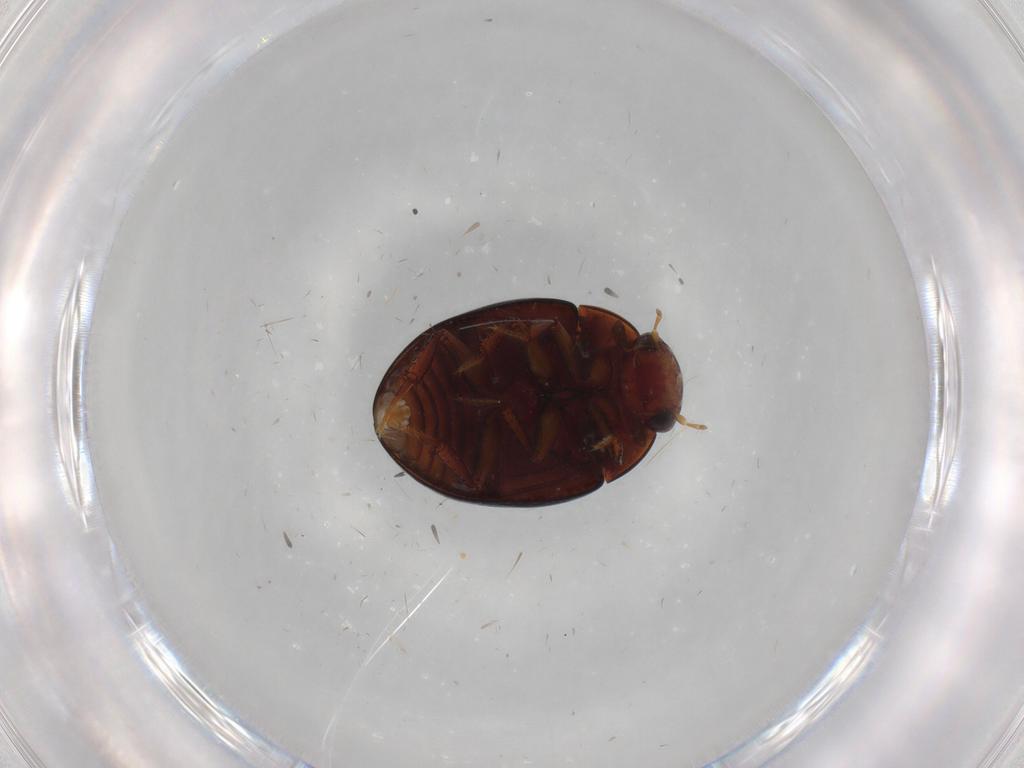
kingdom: Animalia
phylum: Arthropoda
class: Insecta
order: Coleoptera
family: Hydrophilidae
